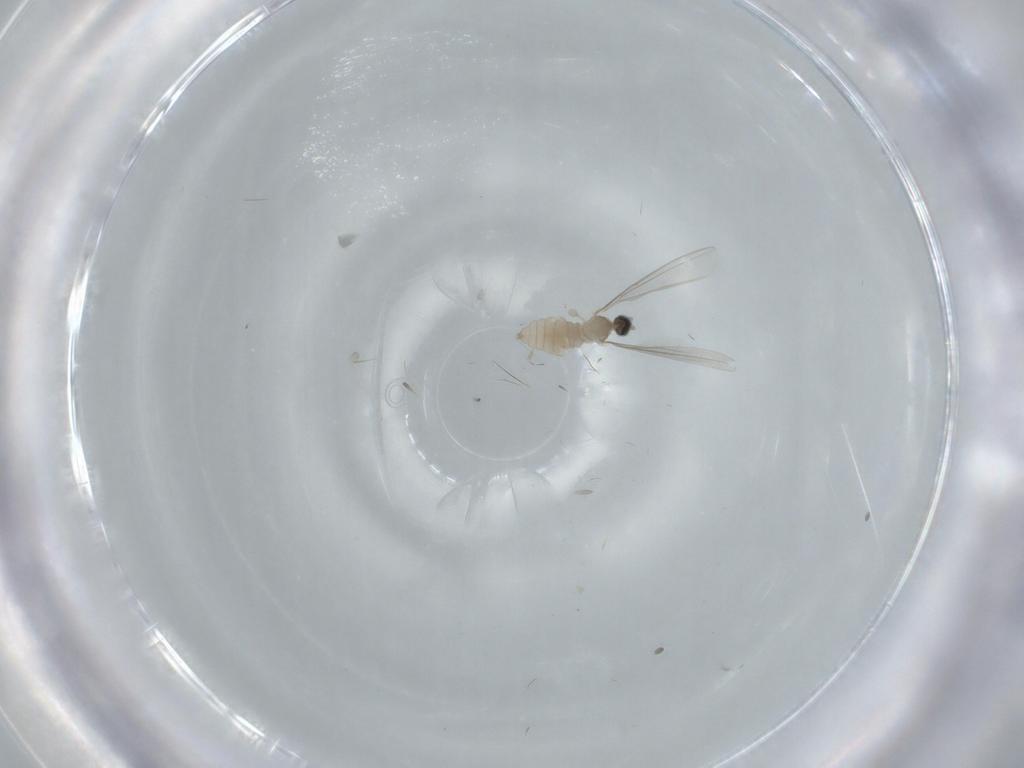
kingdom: Animalia
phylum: Arthropoda
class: Insecta
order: Diptera
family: Cecidomyiidae
